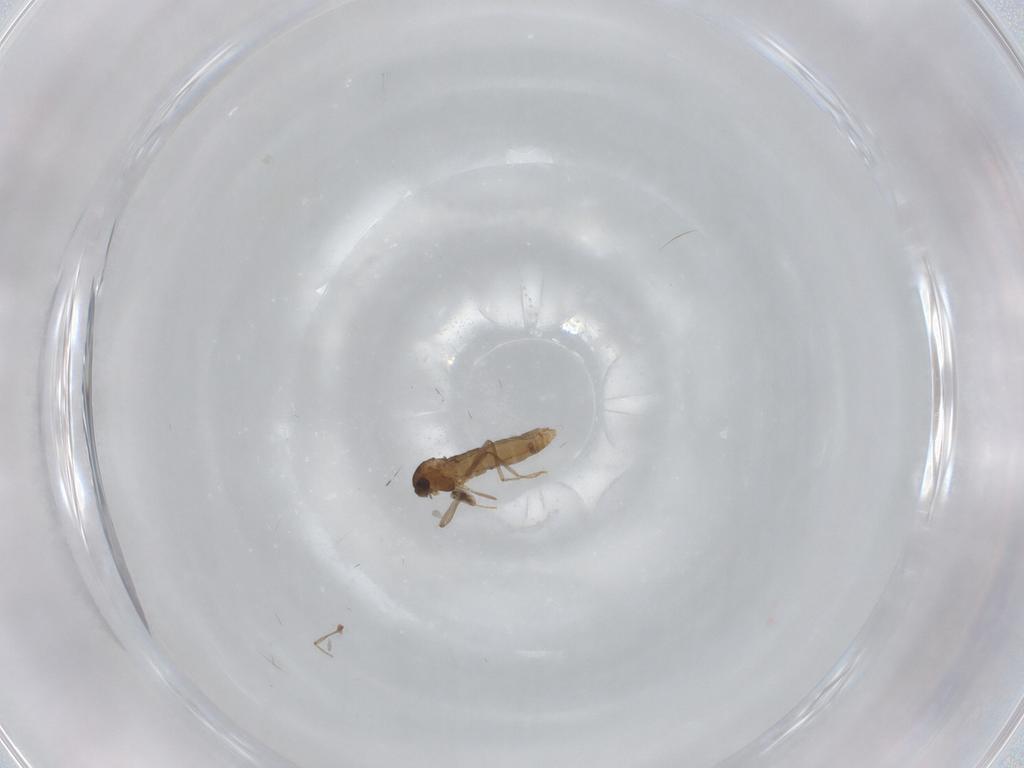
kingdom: Animalia
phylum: Arthropoda
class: Insecta
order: Diptera
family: Chironomidae
